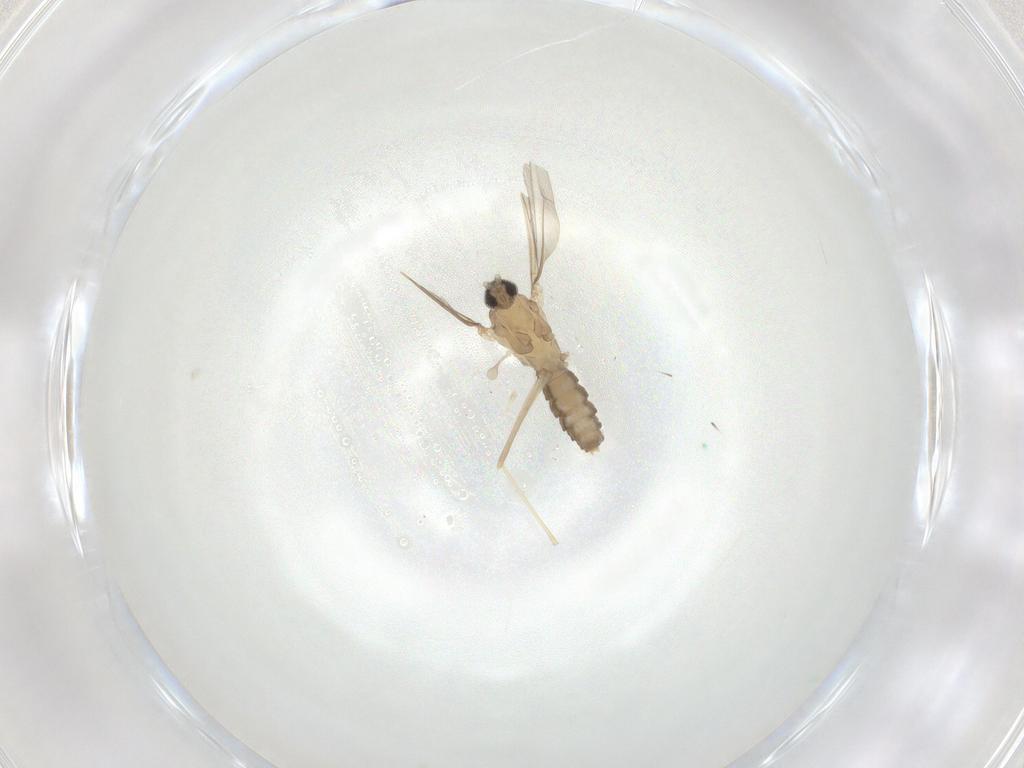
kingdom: Animalia
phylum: Arthropoda
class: Insecta
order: Diptera
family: Cecidomyiidae
